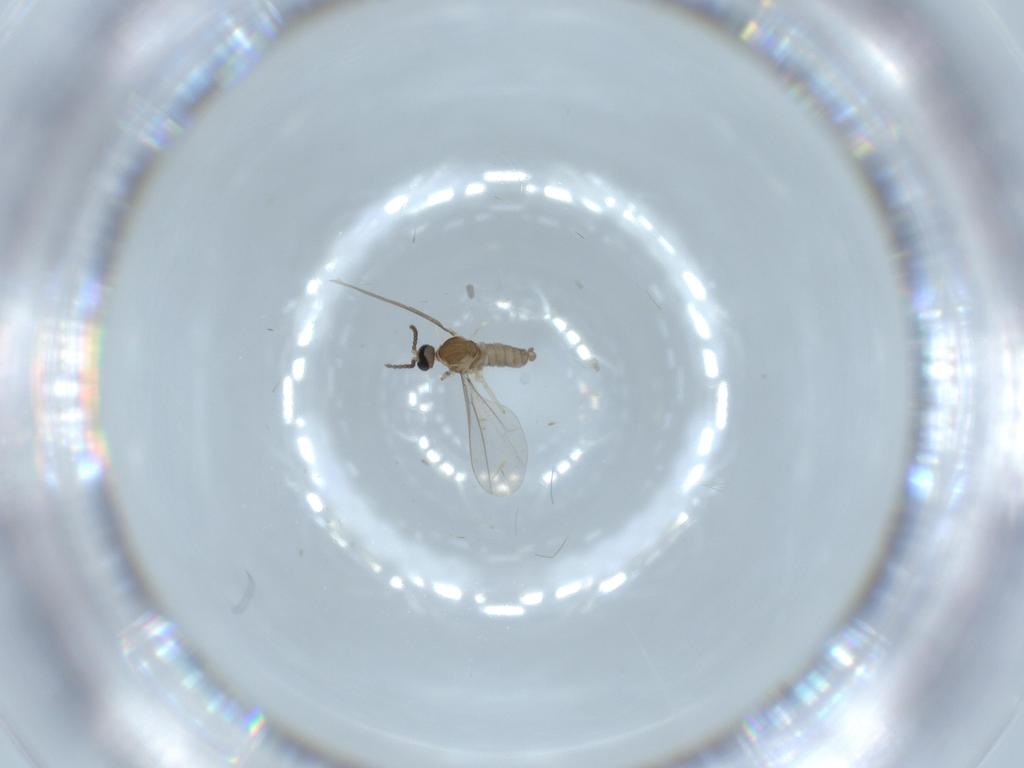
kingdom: Animalia
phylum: Arthropoda
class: Insecta
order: Diptera
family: Cecidomyiidae
